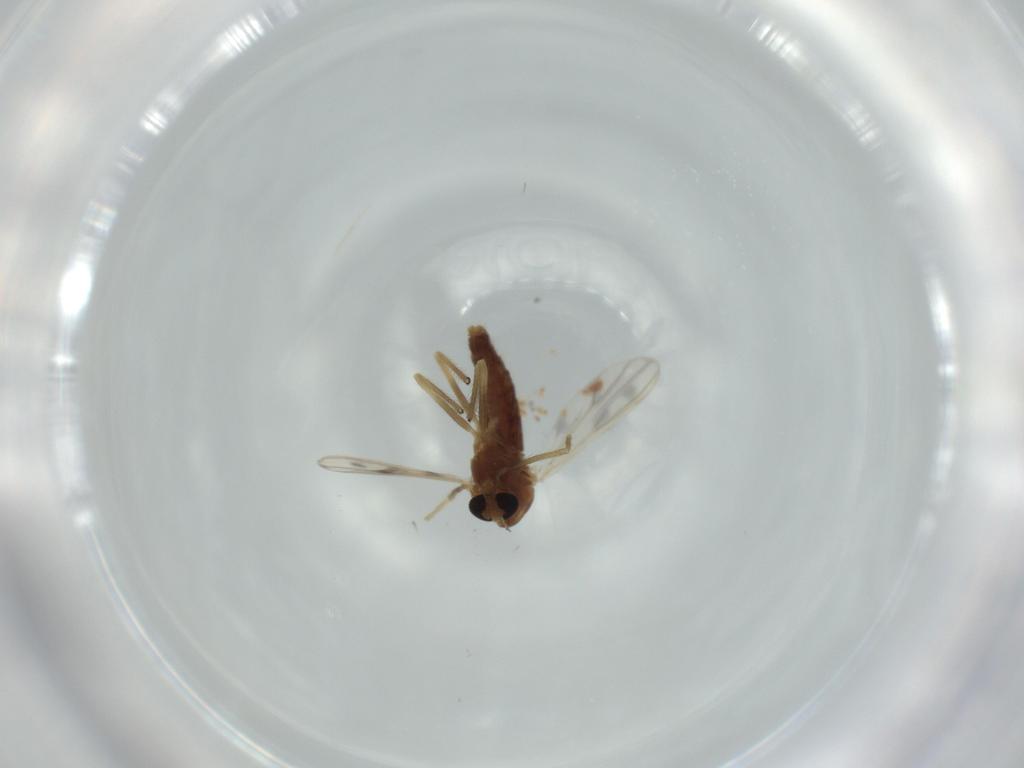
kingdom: Animalia
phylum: Arthropoda
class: Insecta
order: Diptera
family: Chironomidae
